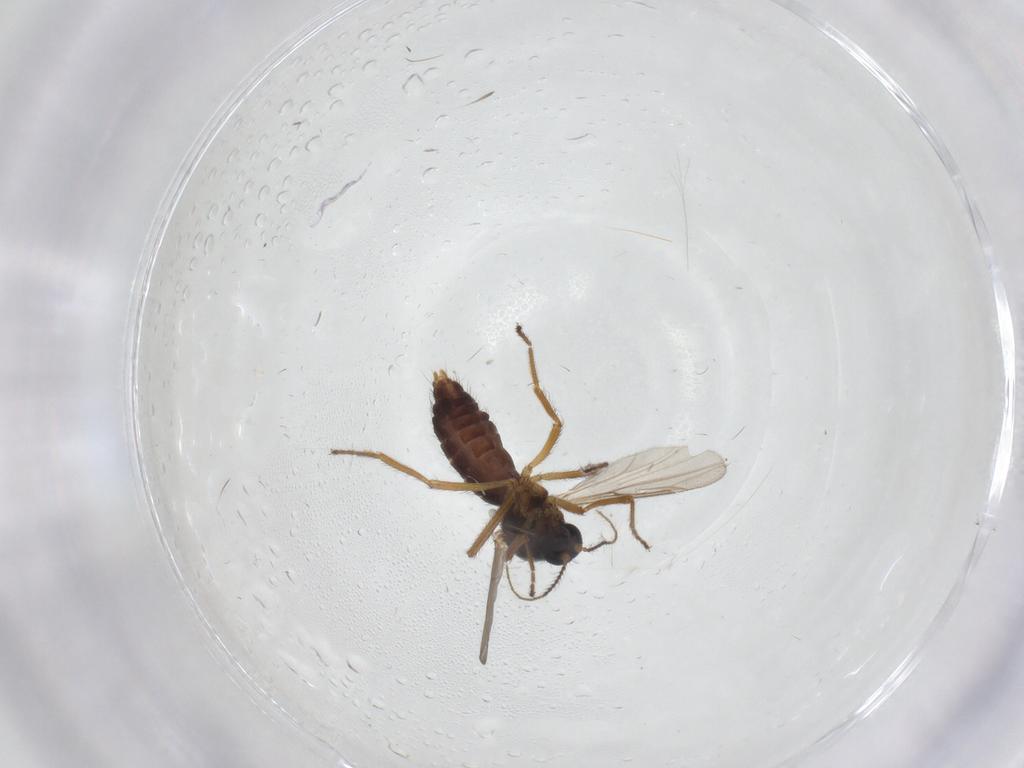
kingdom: Animalia
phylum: Arthropoda
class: Insecta
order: Diptera
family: Ceratopogonidae
